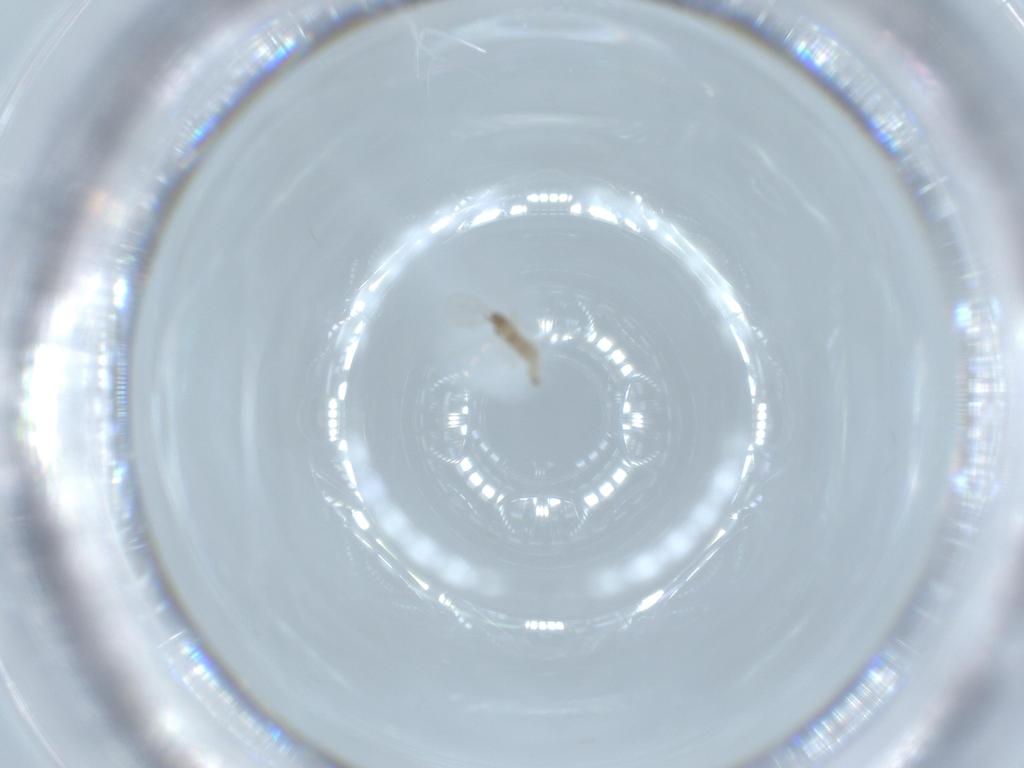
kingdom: Animalia
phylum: Arthropoda
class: Insecta
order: Diptera
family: Cecidomyiidae
